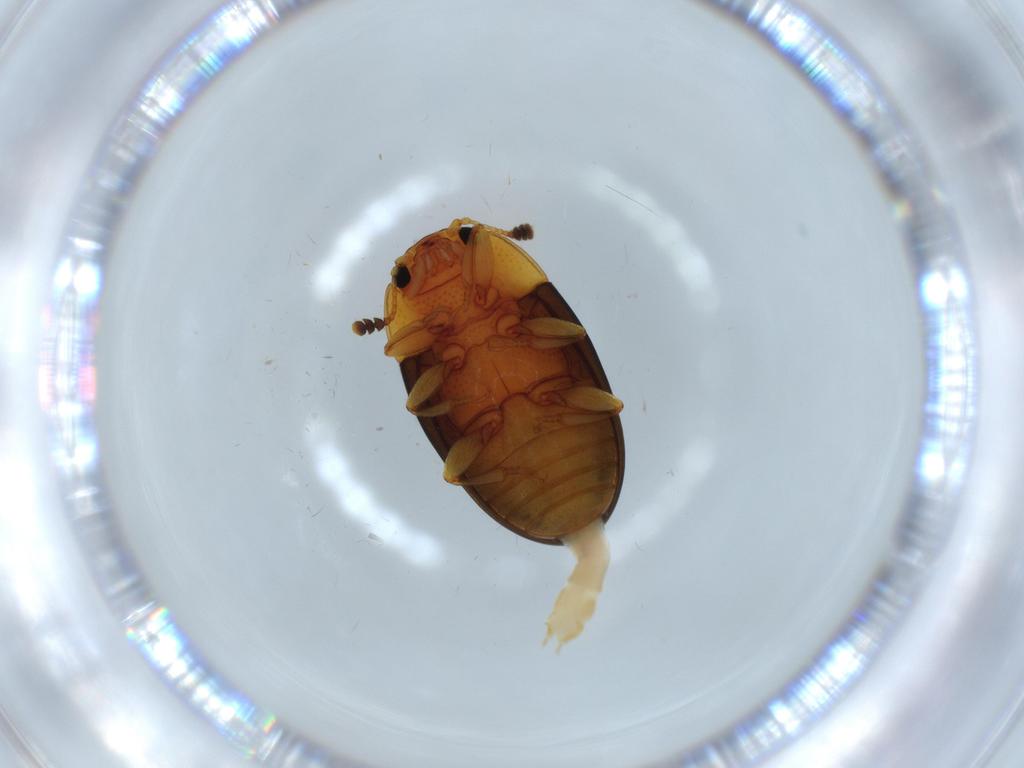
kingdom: Animalia
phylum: Arthropoda
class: Insecta
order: Coleoptera
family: Erotylidae
